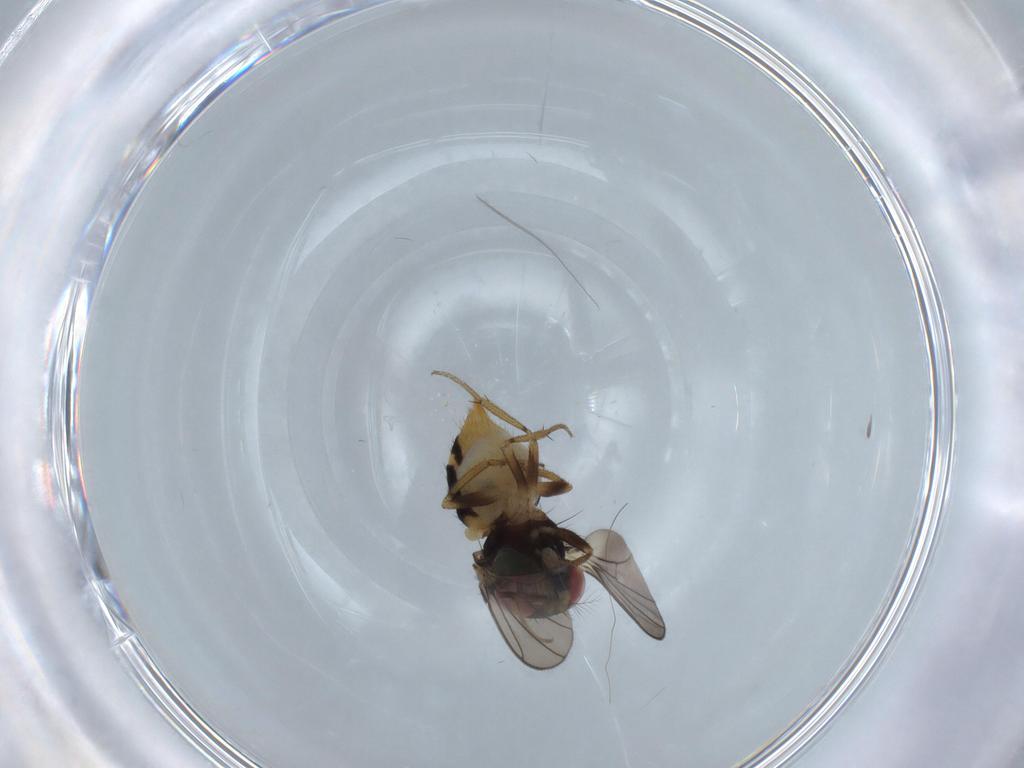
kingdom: Animalia
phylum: Arthropoda
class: Insecta
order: Diptera
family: Drosophilidae
